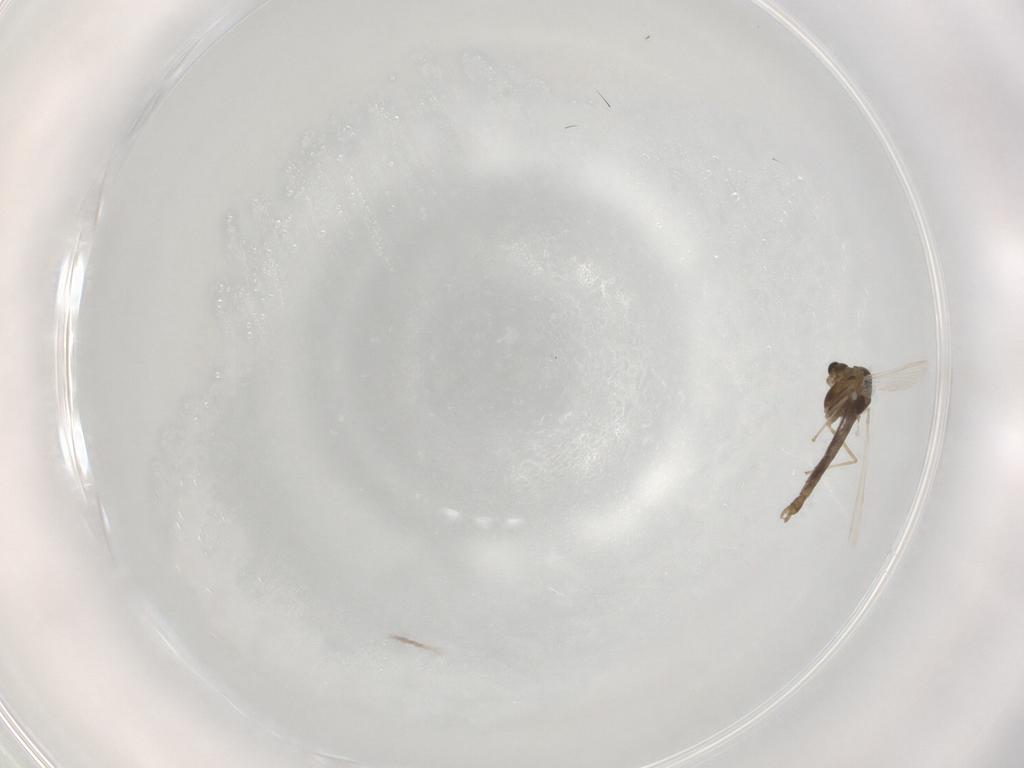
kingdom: Animalia
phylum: Arthropoda
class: Insecta
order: Diptera
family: Chironomidae
